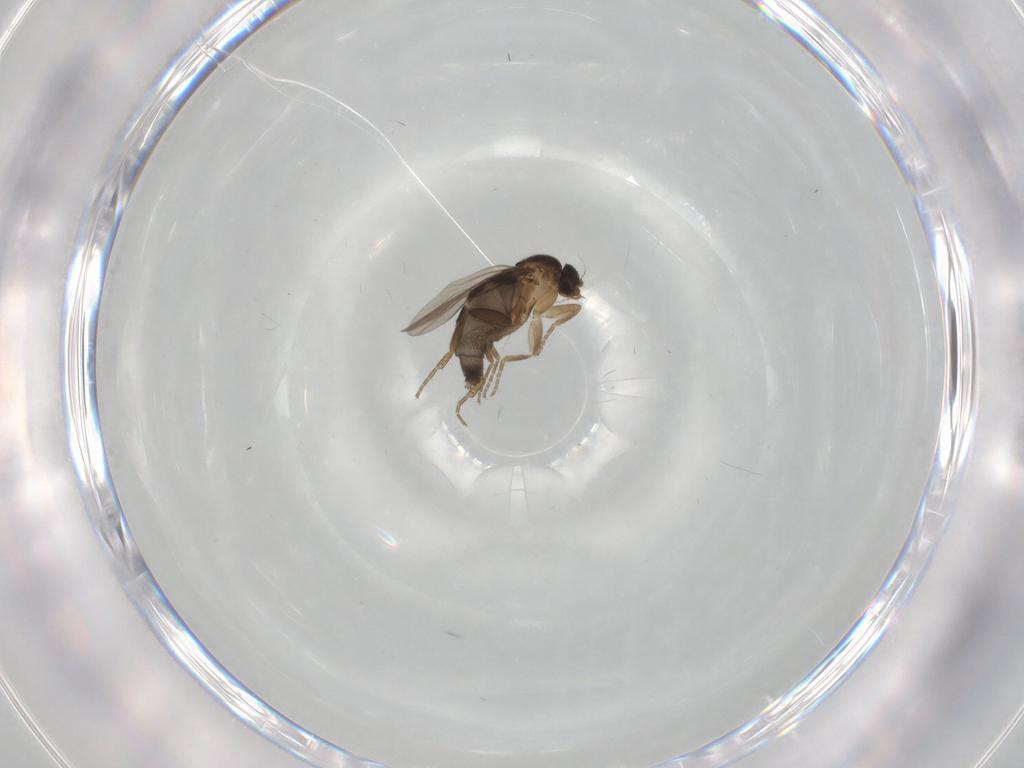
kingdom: Animalia
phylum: Arthropoda
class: Insecta
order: Diptera
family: Phoridae
